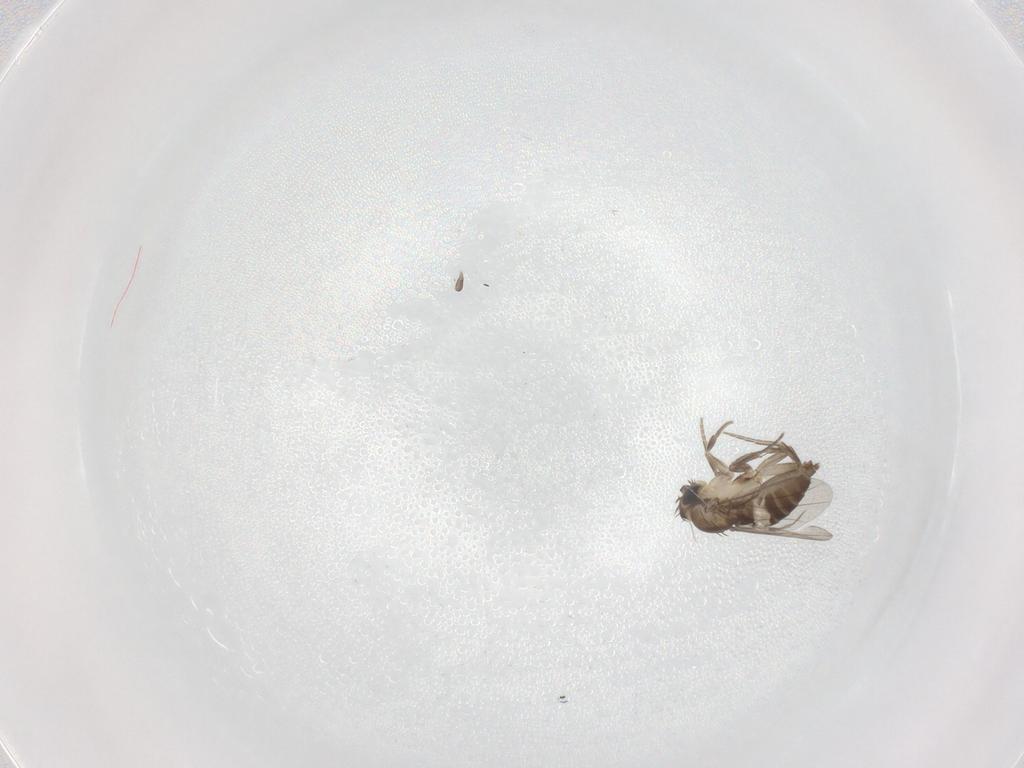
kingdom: Animalia
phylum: Arthropoda
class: Insecta
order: Diptera
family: Phoridae
